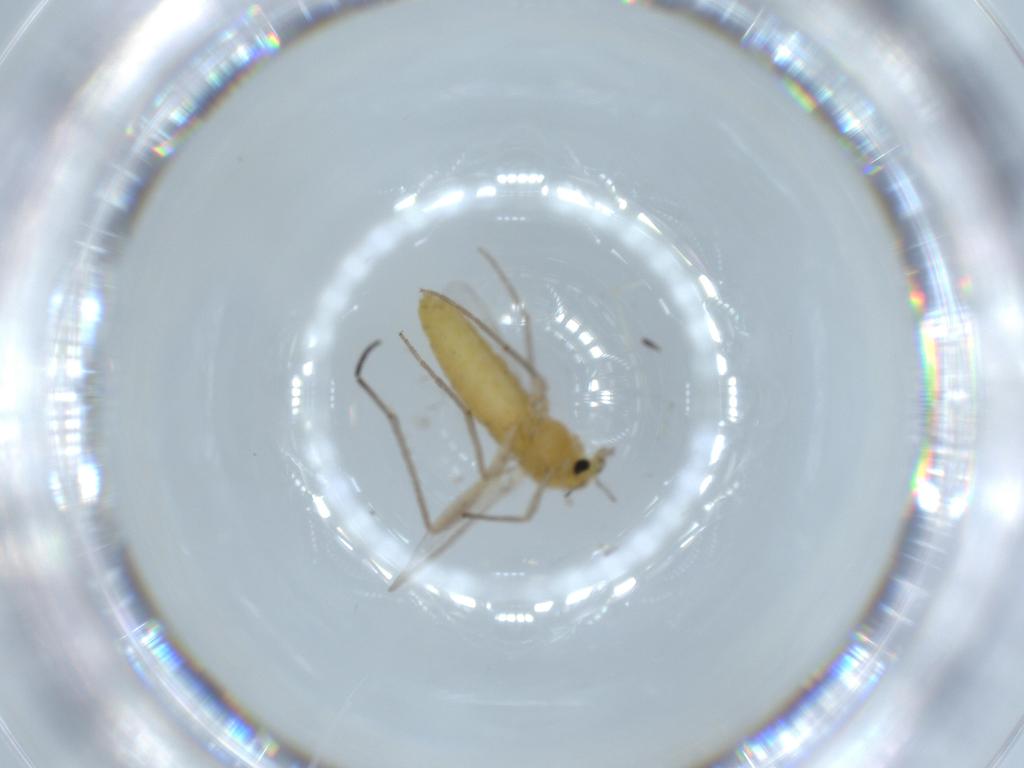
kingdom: Animalia
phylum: Arthropoda
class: Insecta
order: Diptera
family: Chironomidae
